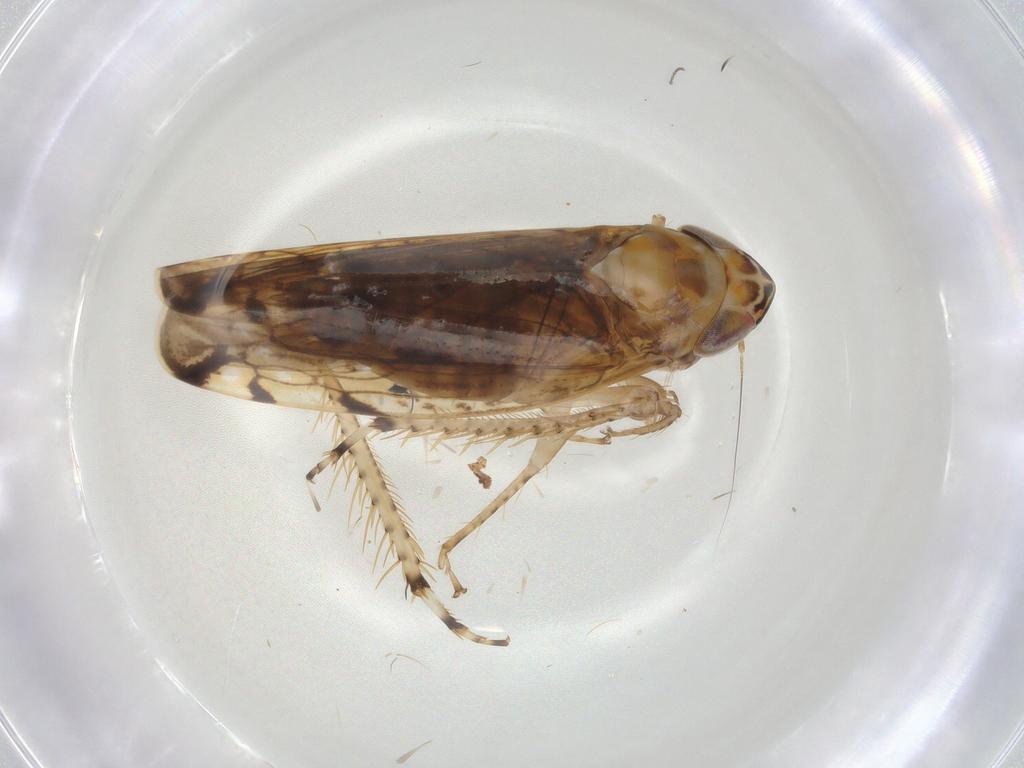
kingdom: Animalia
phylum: Arthropoda
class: Insecta
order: Hemiptera
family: Cicadellidae
